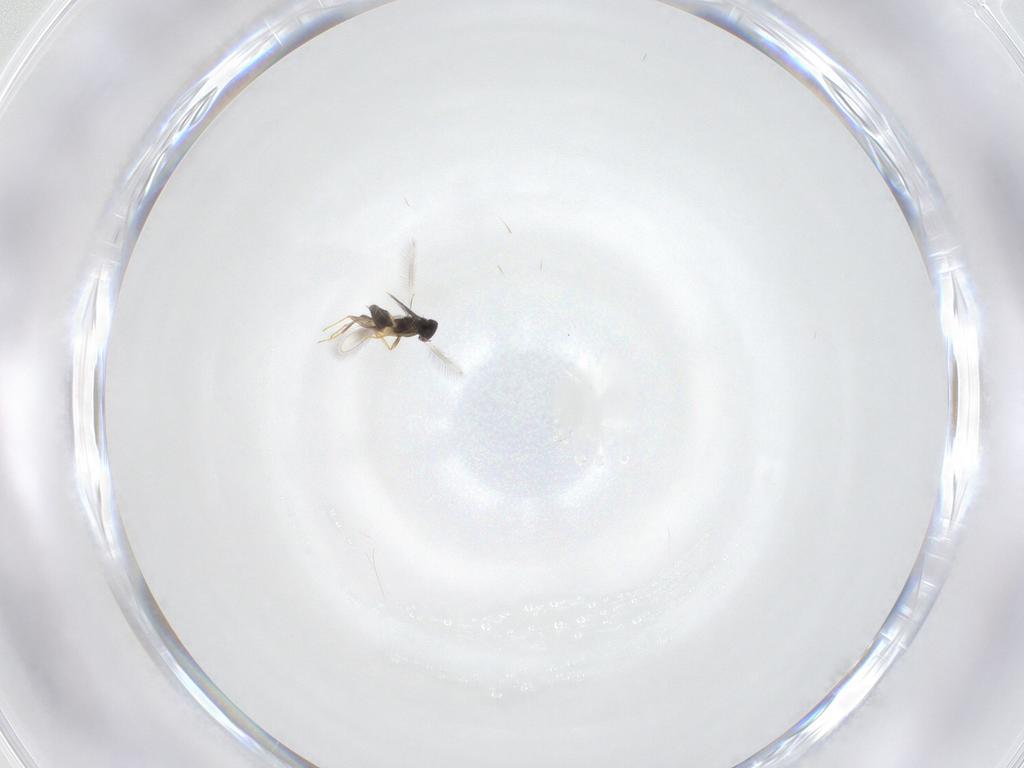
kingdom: Animalia
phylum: Arthropoda
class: Insecta
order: Hymenoptera
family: Mymaridae
